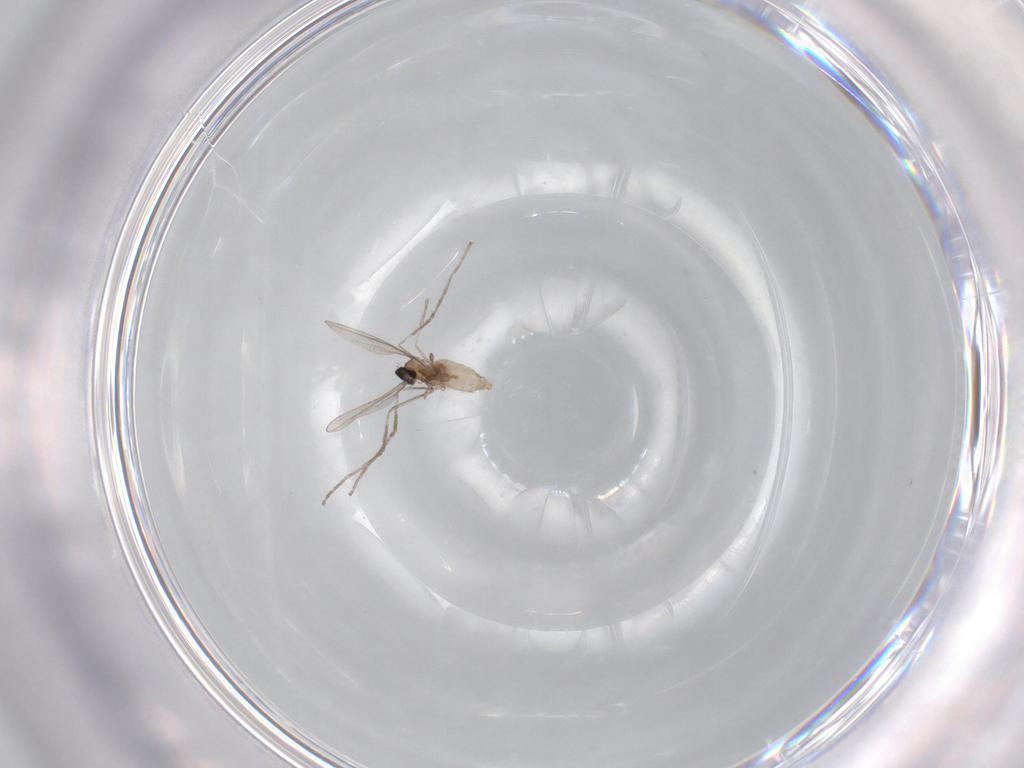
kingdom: Animalia
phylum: Arthropoda
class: Insecta
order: Diptera
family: Cecidomyiidae
